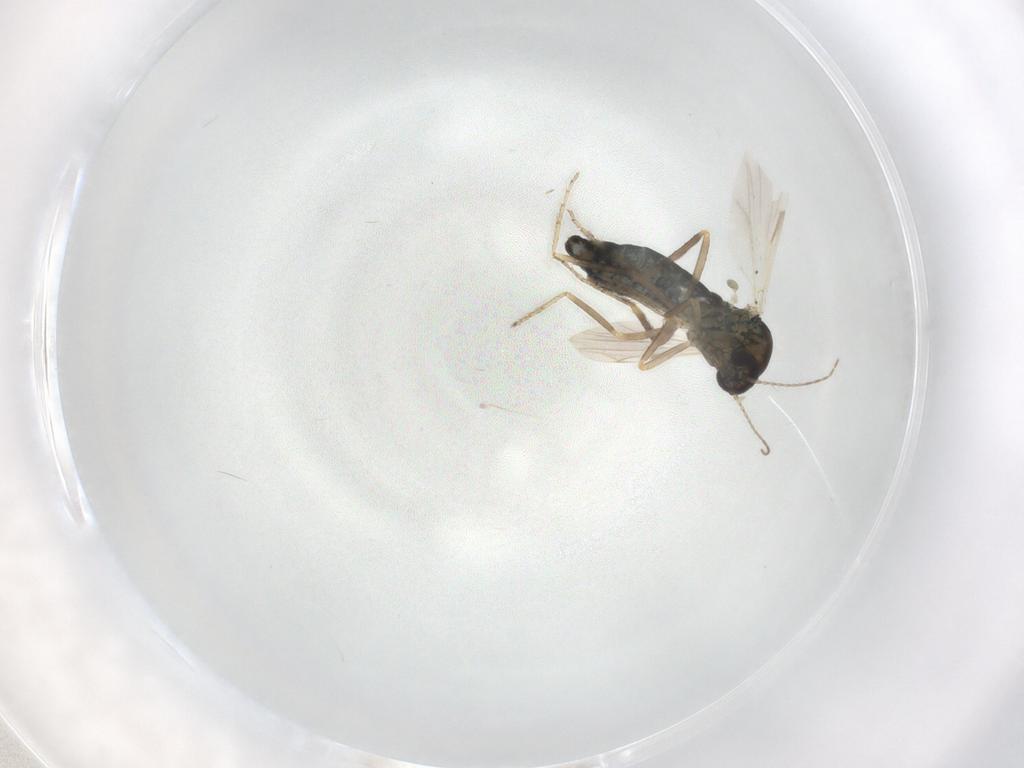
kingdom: Animalia
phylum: Arthropoda
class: Insecta
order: Diptera
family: Ceratopogonidae
